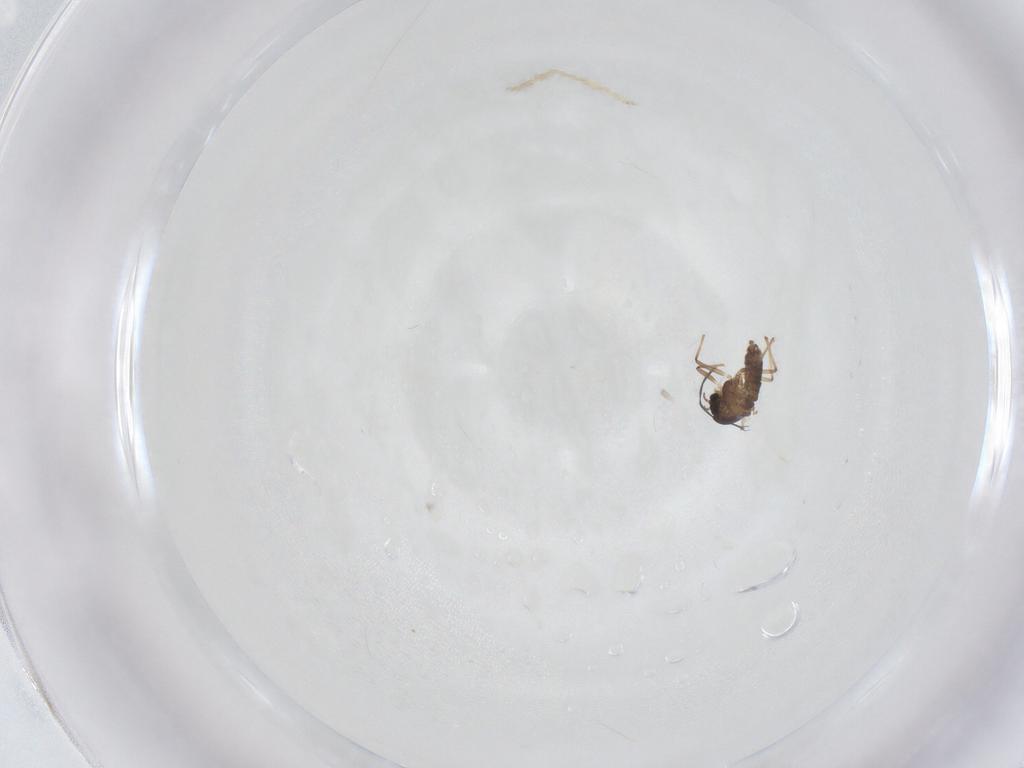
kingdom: Animalia
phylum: Arthropoda
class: Insecta
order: Diptera
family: Chironomidae
